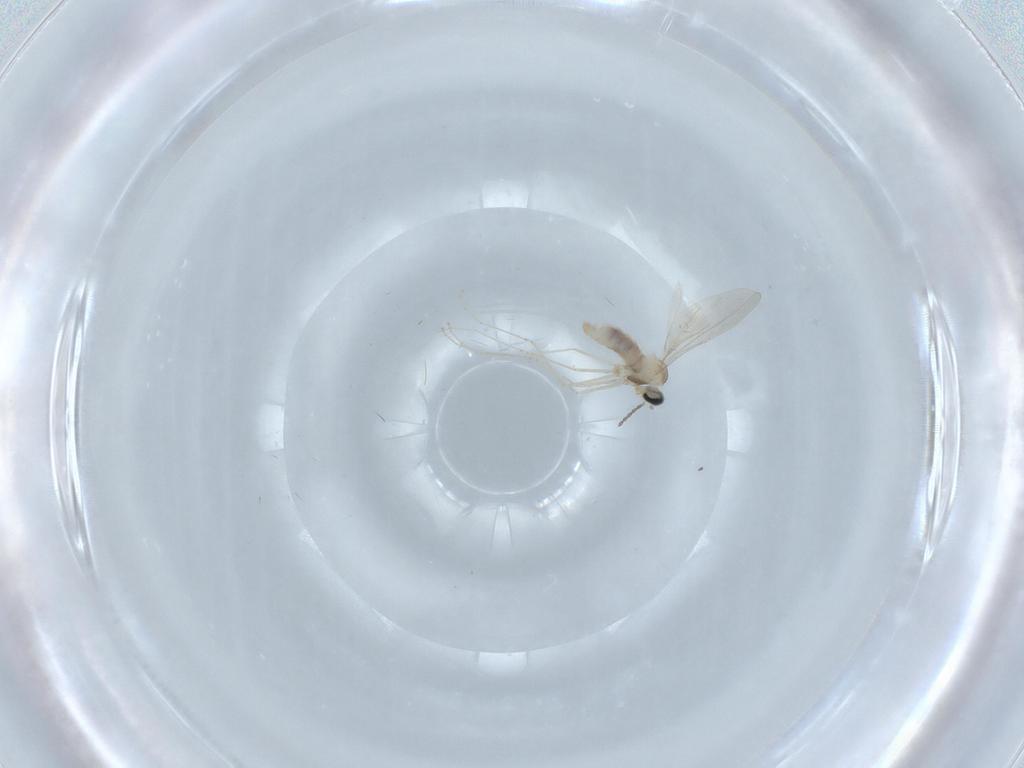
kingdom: Animalia
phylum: Arthropoda
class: Insecta
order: Diptera
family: Cecidomyiidae
